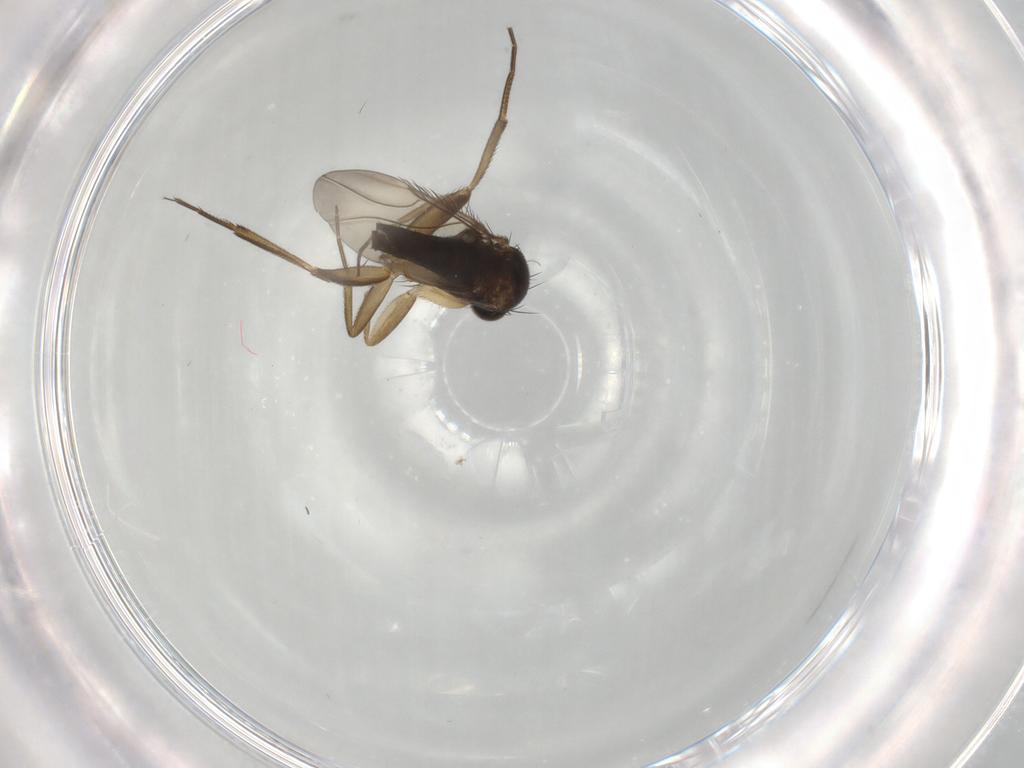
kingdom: Animalia
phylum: Arthropoda
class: Insecta
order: Diptera
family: Phoridae
